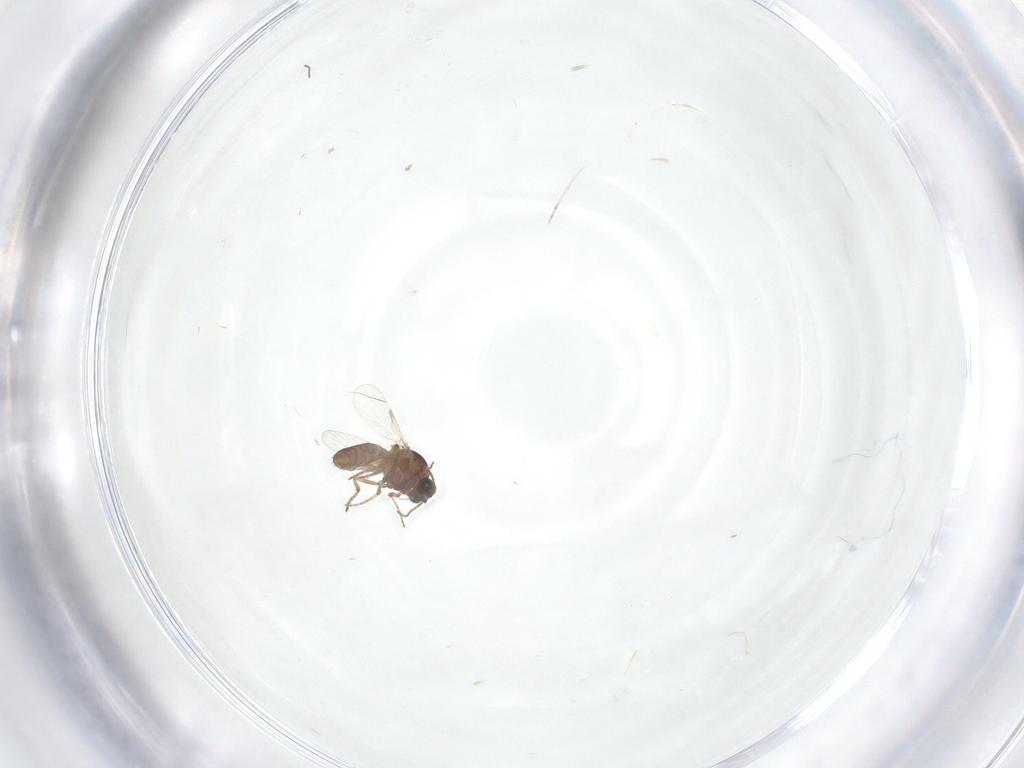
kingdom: Animalia
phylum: Arthropoda
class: Insecta
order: Diptera
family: Ceratopogonidae
